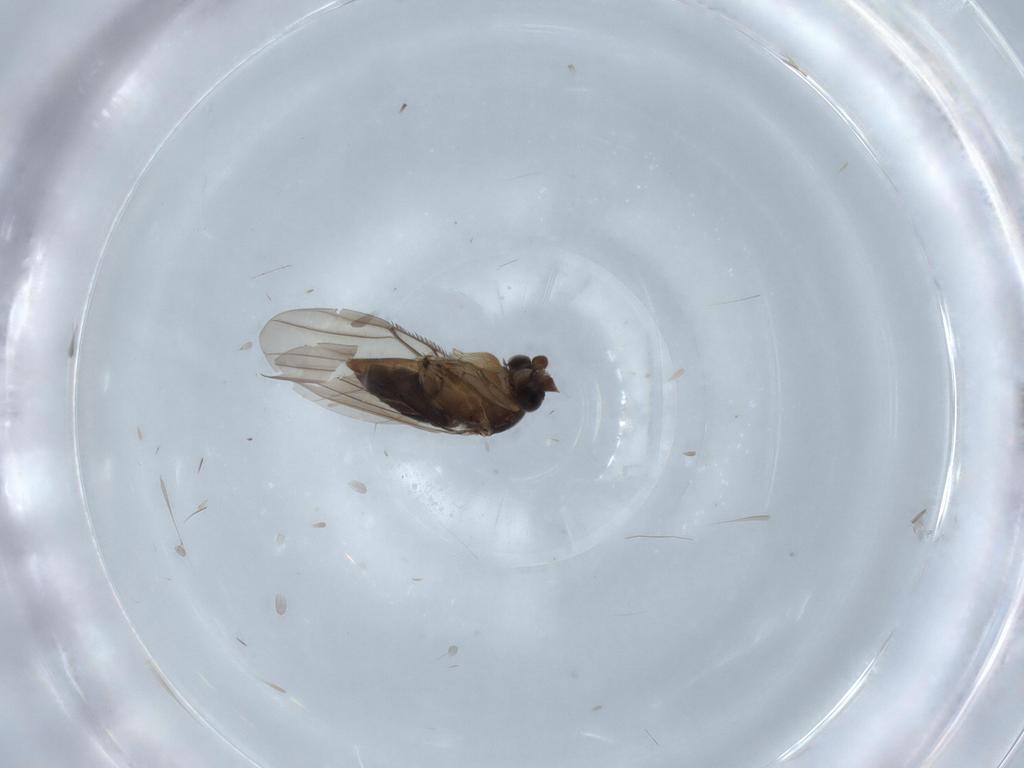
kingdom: Animalia
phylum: Arthropoda
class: Insecta
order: Diptera
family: Phoridae
